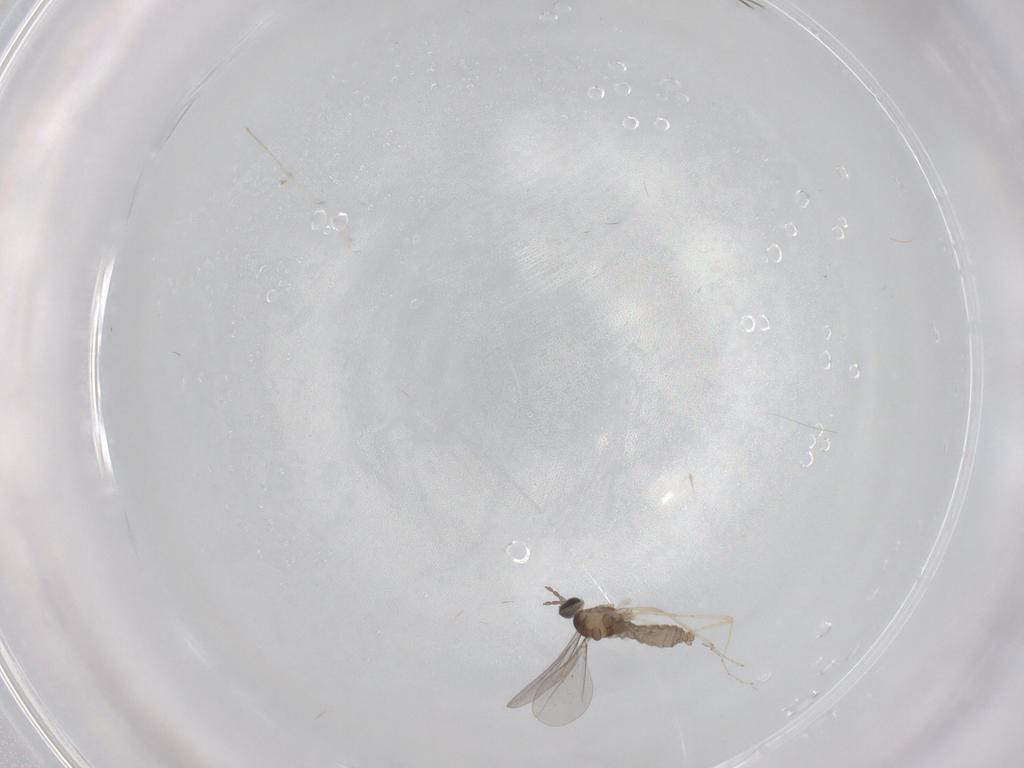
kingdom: Animalia
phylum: Arthropoda
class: Insecta
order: Diptera
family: Phoridae
